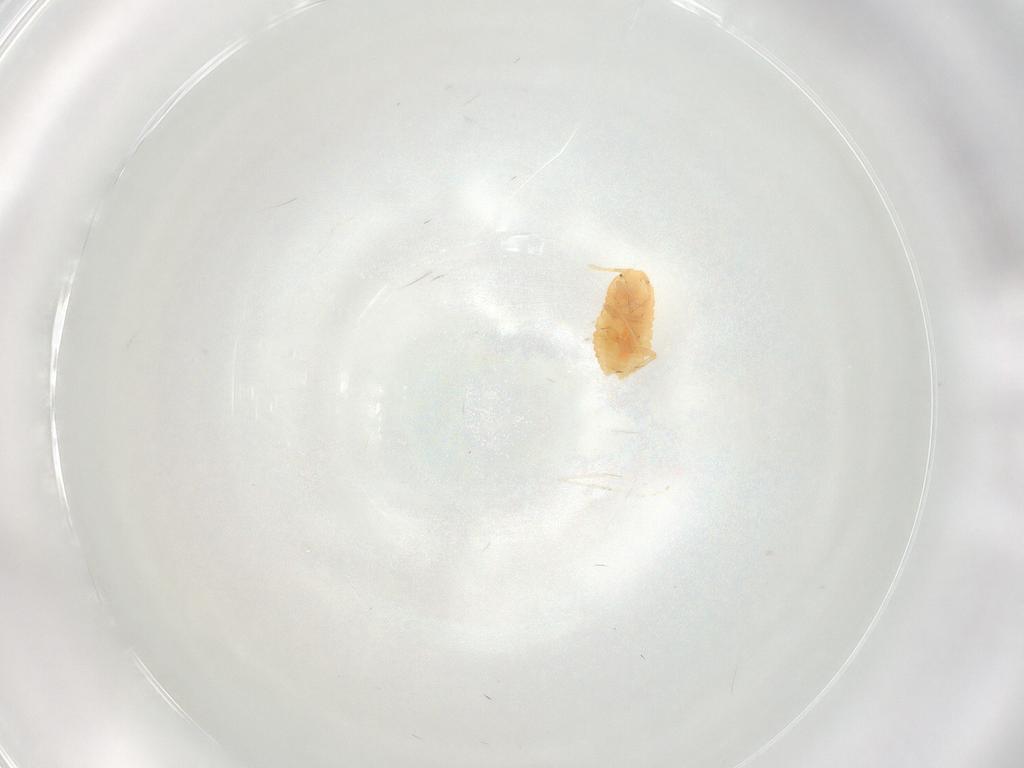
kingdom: Animalia
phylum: Arthropoda
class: Insecta
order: Hemiptera
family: Pseudococcidae
